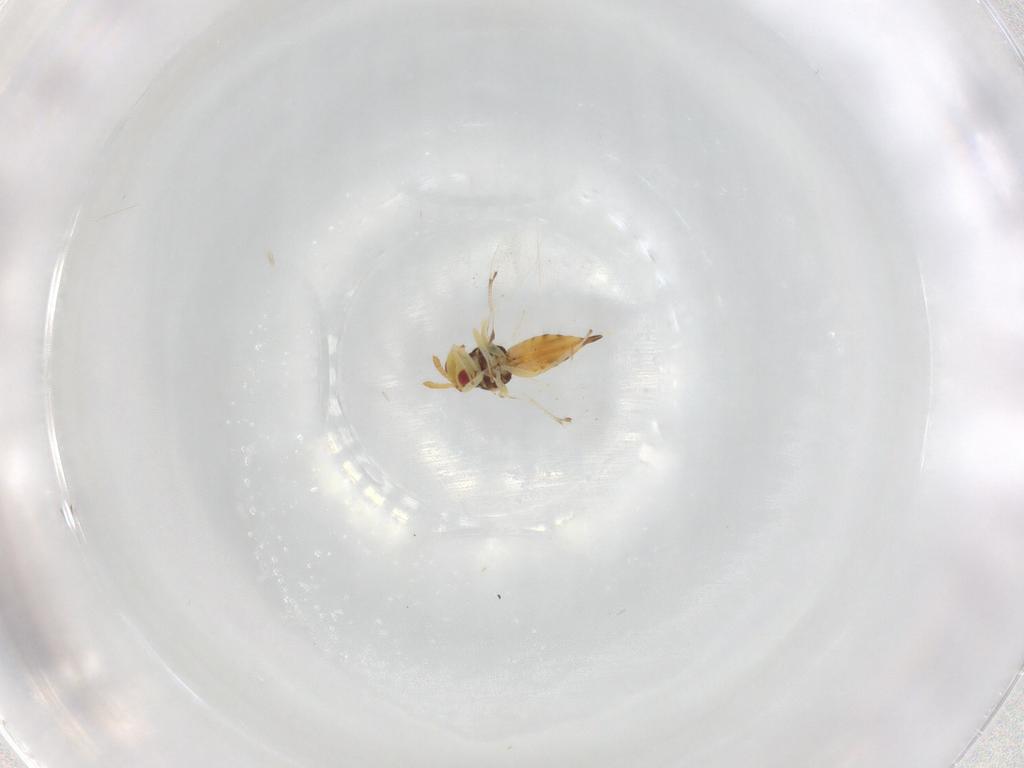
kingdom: Animalia
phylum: Arthropoda
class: Insecta
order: Hymenoptera
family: Eulophidae
